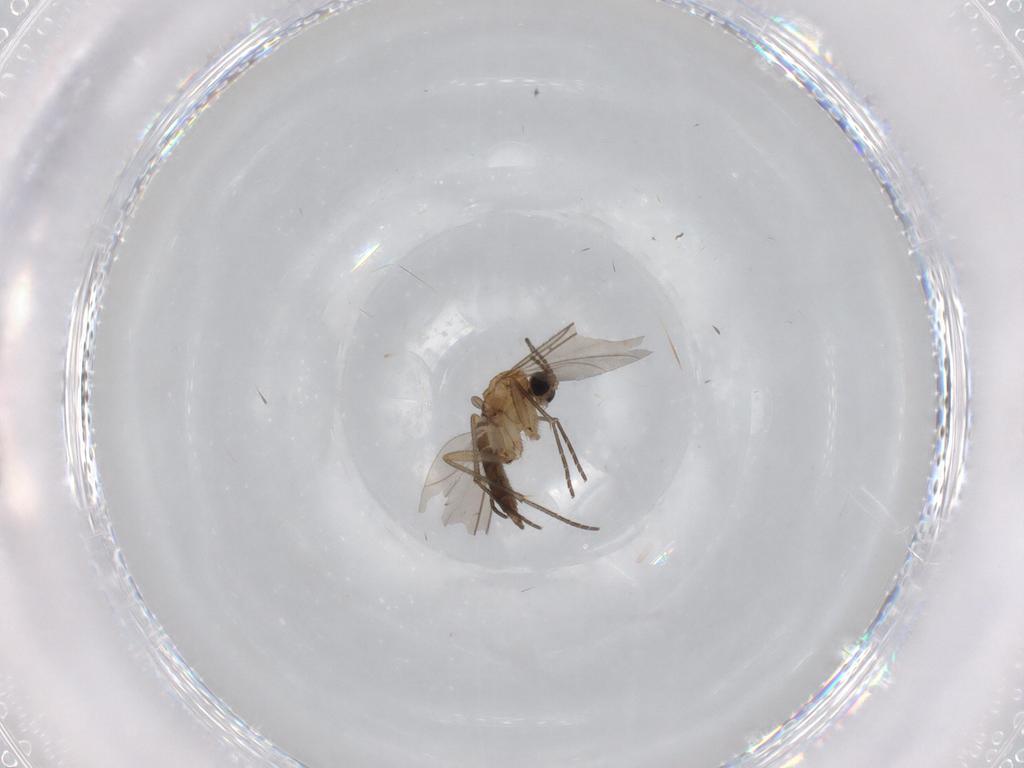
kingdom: Animalia
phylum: Arthropoda
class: Insecta
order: Diptera
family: Sciaridae
